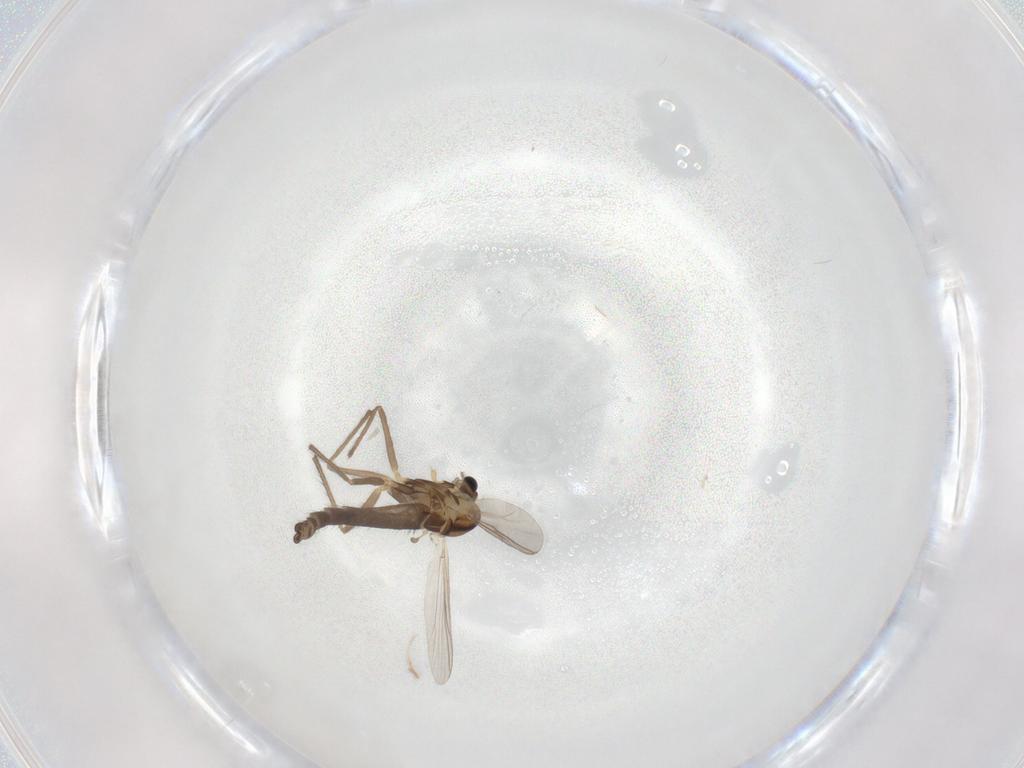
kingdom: Animalia
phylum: Arthropoda
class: Insecta
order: Diptera
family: Chironomidae
